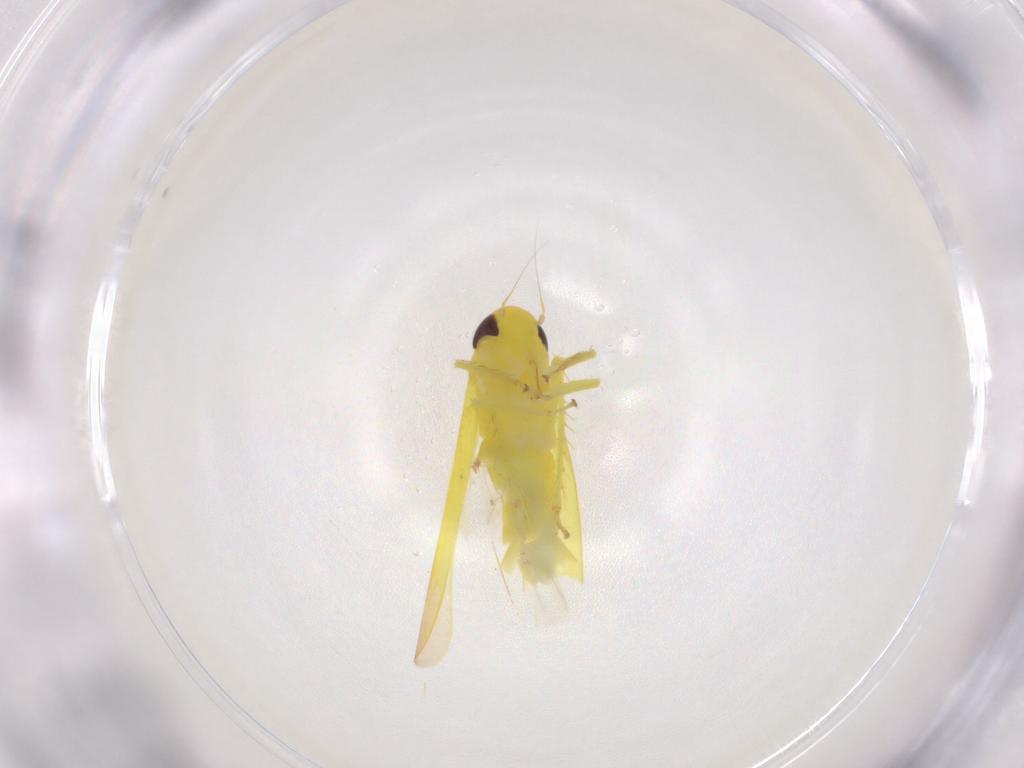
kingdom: Animalia
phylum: Arthropoda
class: Insecta
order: Hemiptera
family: Cicadellidae
